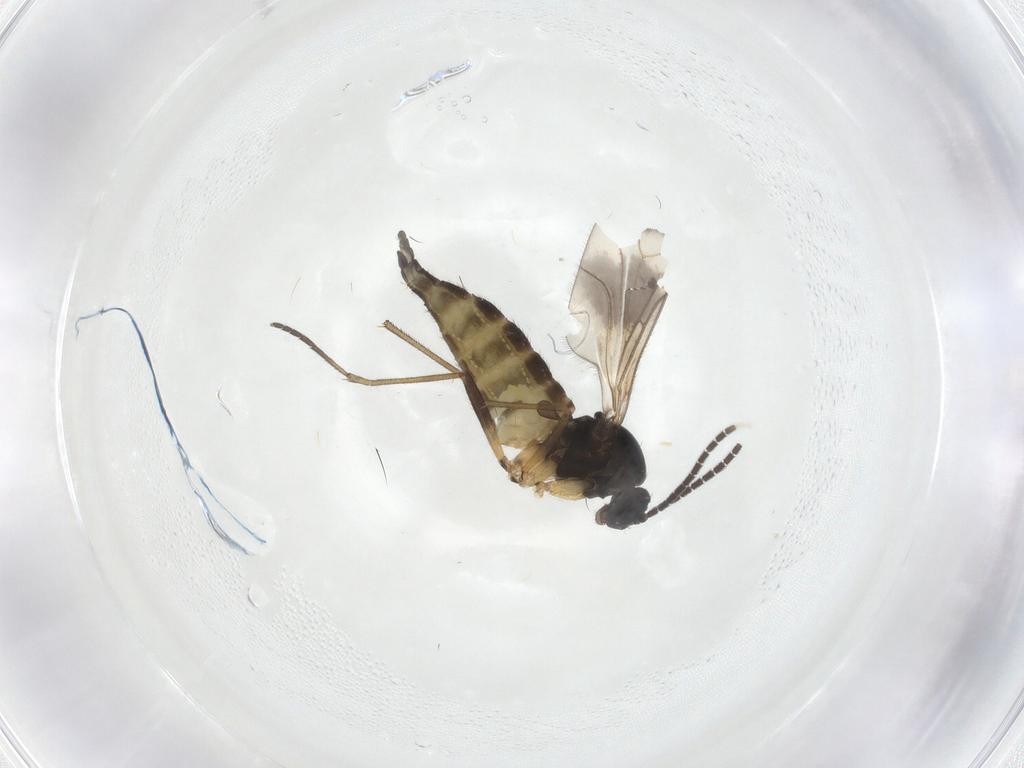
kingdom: Animalia
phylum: Arthropoda
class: Insecta
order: Diptera
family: Sciaridae
